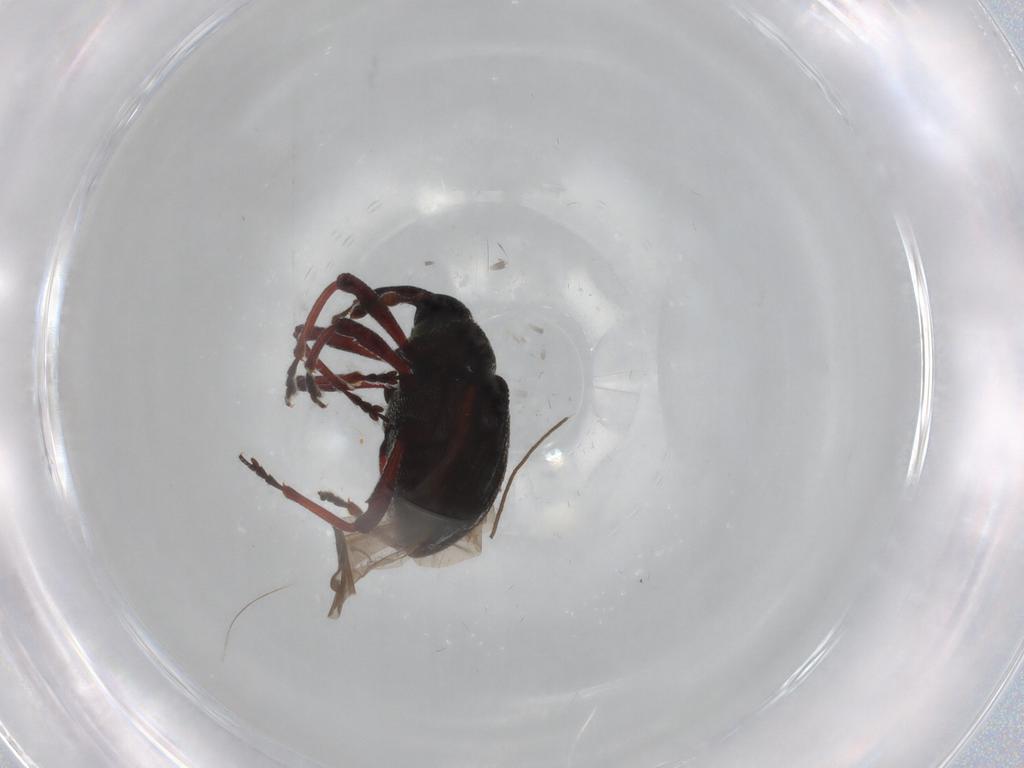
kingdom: Animalia
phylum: Arthropoda
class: Insecta
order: Coleoptera
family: Curculionidae
